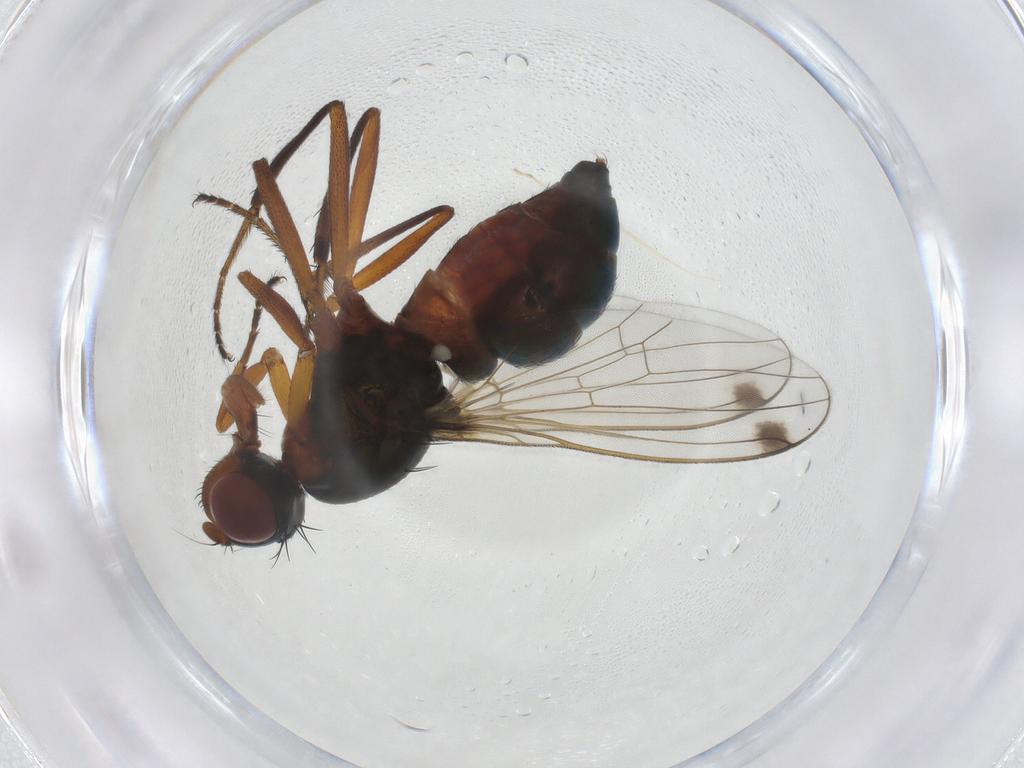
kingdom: Animalia
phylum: Arthropoda
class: Insecta
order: Diptera
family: Sepsidae
